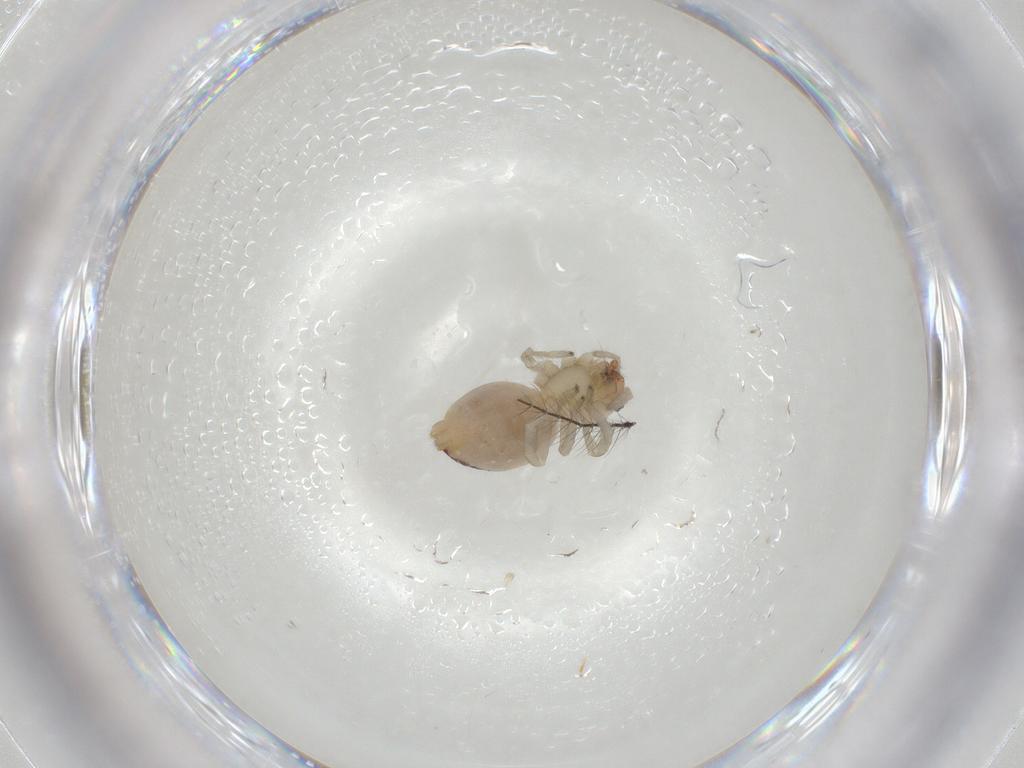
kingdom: Animalia
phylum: Arthropoda
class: Arachnida
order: Araneae
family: Cheiracanthiidae
